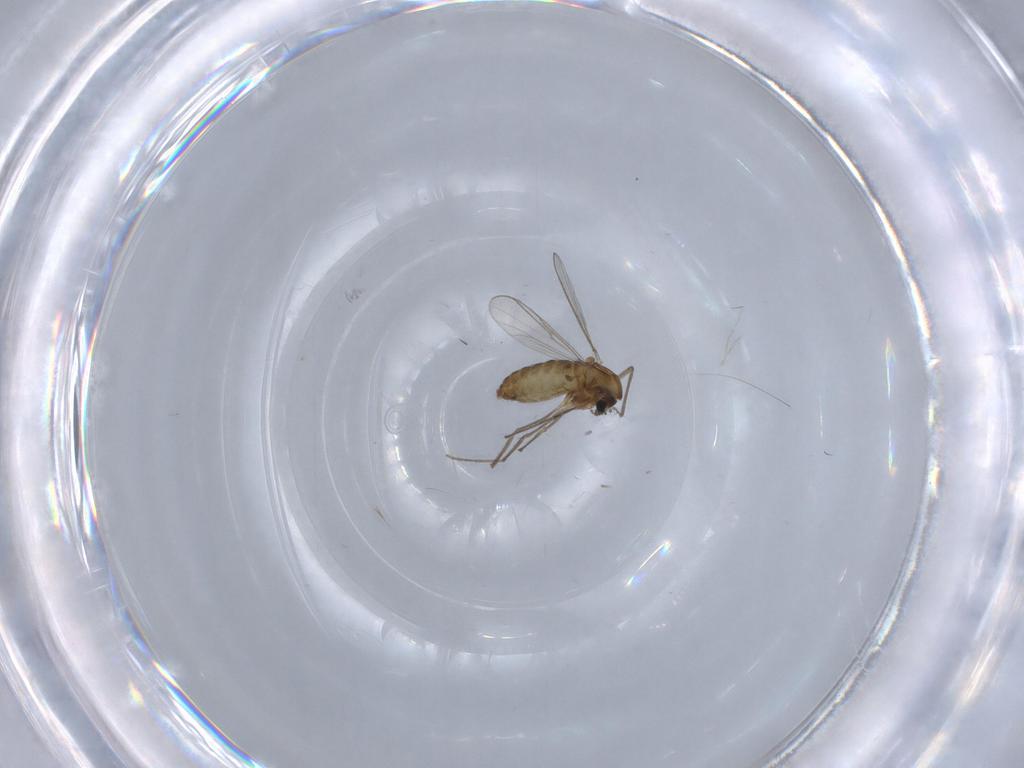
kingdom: Animalia
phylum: Arthropoda
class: Insecta
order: Diptera
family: Chironomidae
